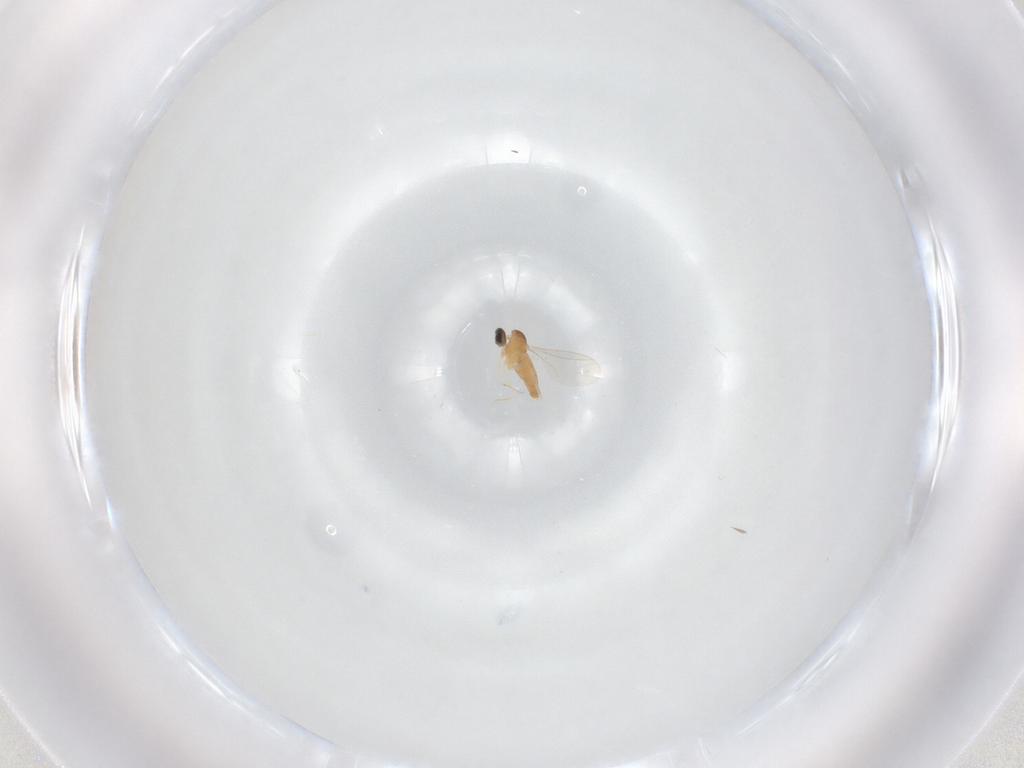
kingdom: Animalia
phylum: Arthropoda
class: Insecta
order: Diptera
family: Cecidomyiidae
